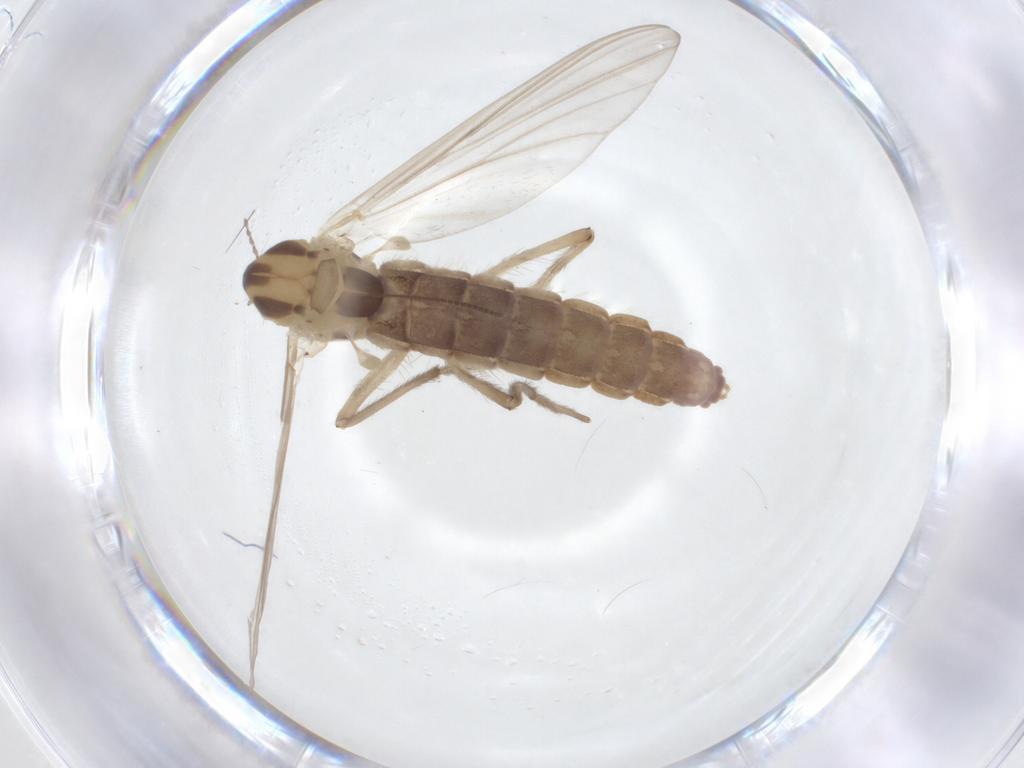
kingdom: Animalia
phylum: Arthropoda
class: Insecta
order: Diptera
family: Chironomidae
